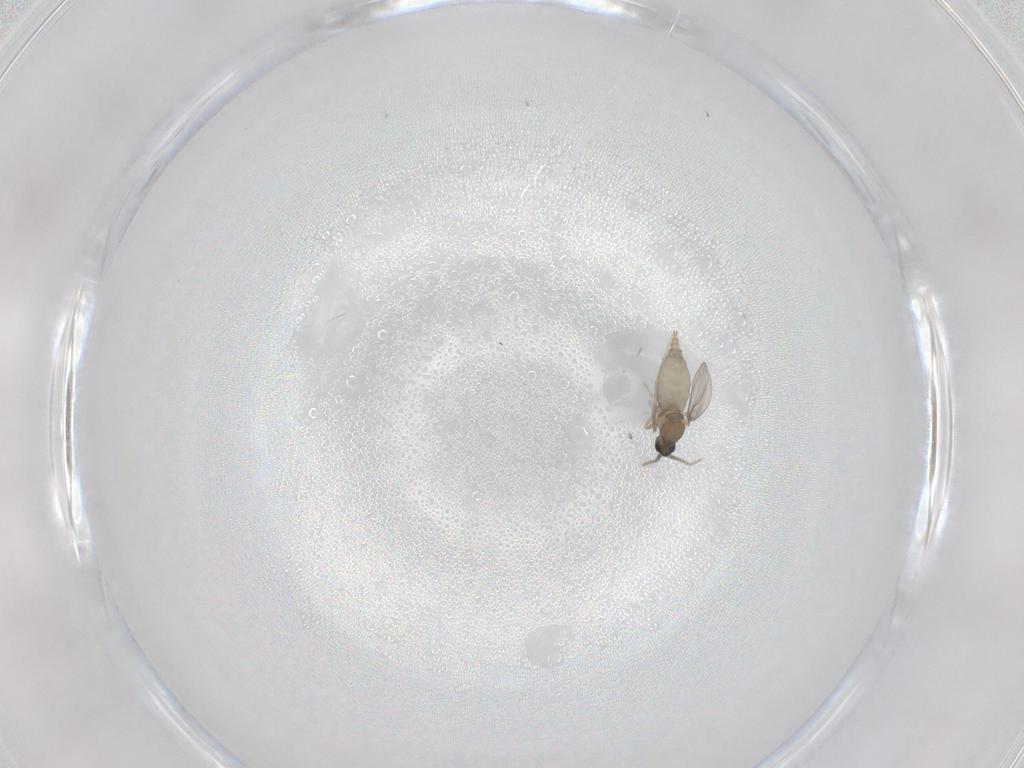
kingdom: Animalia
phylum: Arthropoda
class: Insecta
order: Diptera
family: Cecidomyiidae
